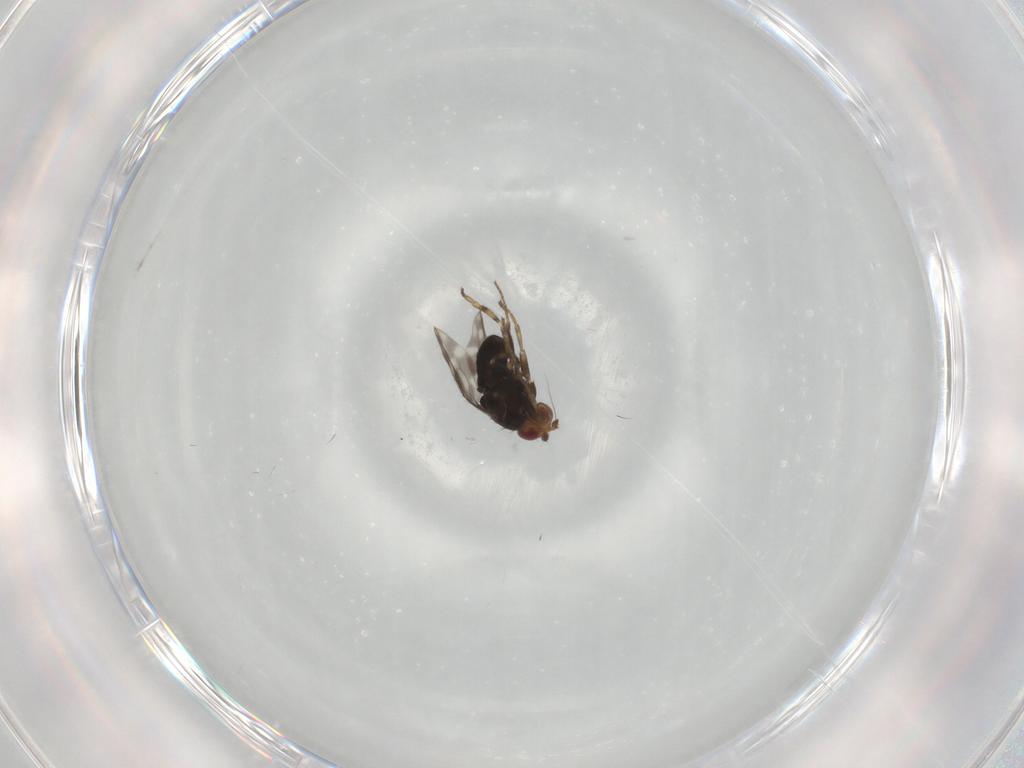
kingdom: Animalia
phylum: Arthropoda
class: Insecta
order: Diptera
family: Sphaeroceridae
